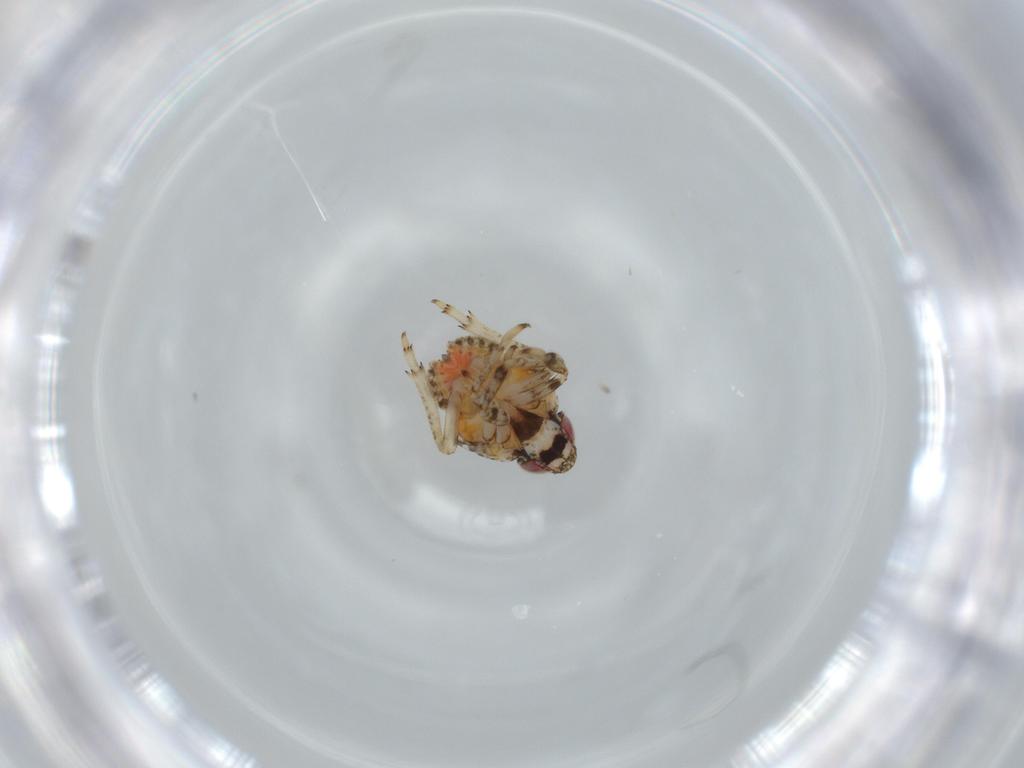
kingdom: Animalia
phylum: Arthropoda
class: Insecta
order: Hemiptera
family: Issidae
